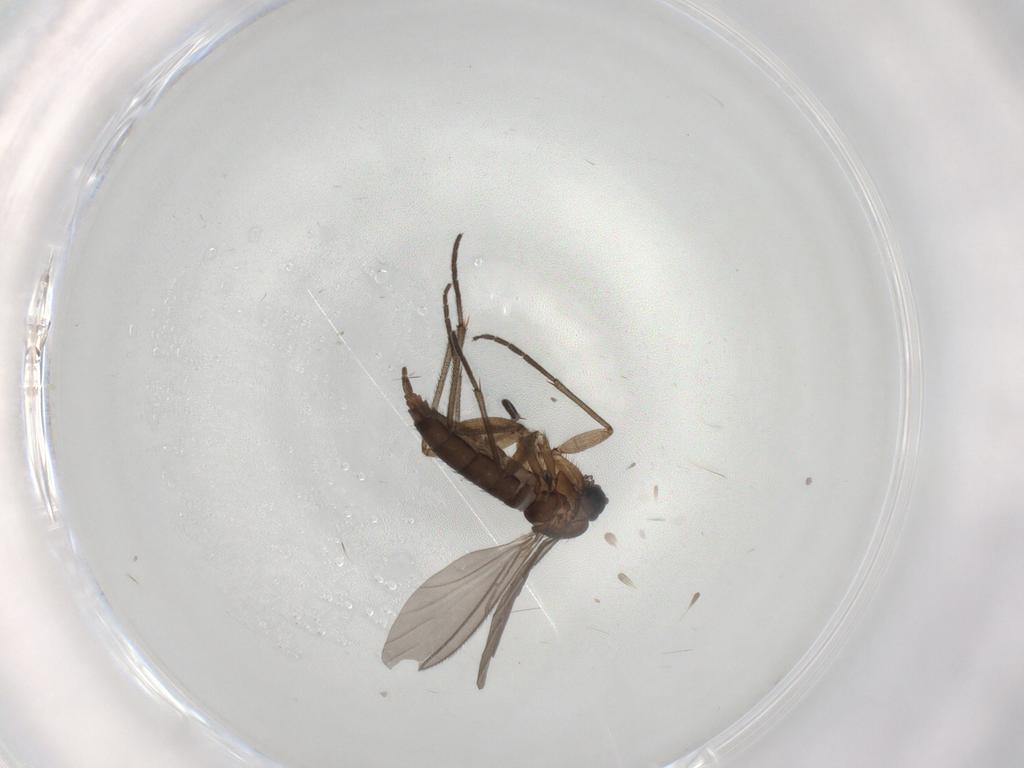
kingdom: Animalia
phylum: Arthropoda
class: Insecta
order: Diptera
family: Sciaridae
